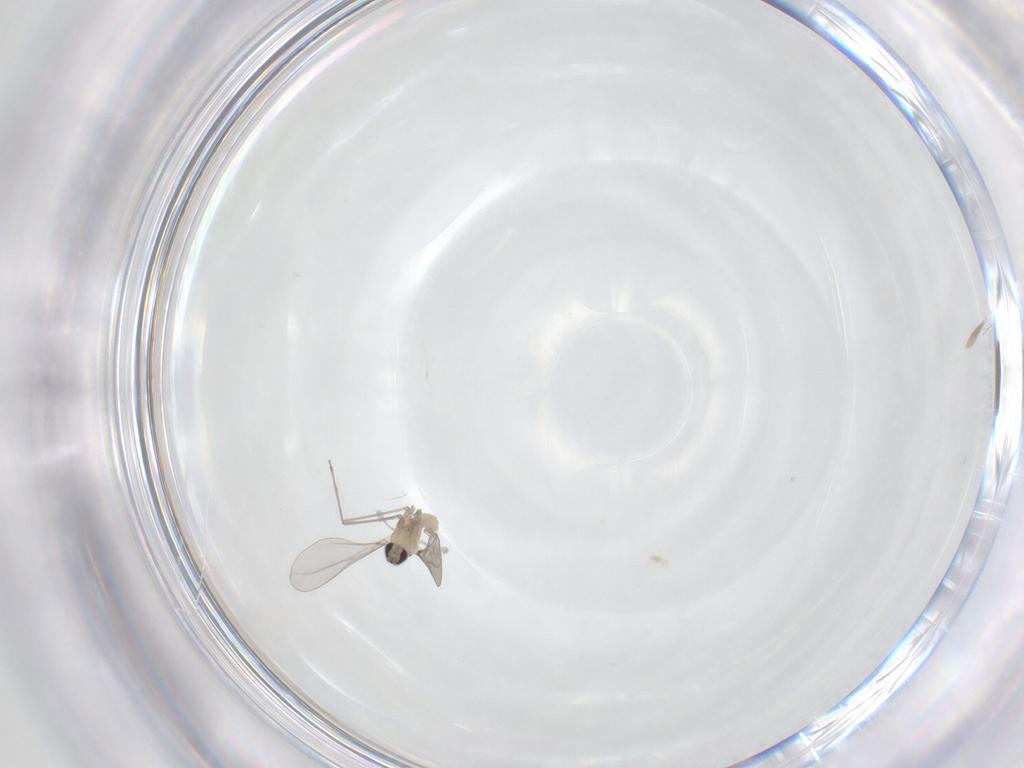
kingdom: Animalia
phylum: Arthropoda
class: Insecta
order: Diptera
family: Cecidomyiidae
